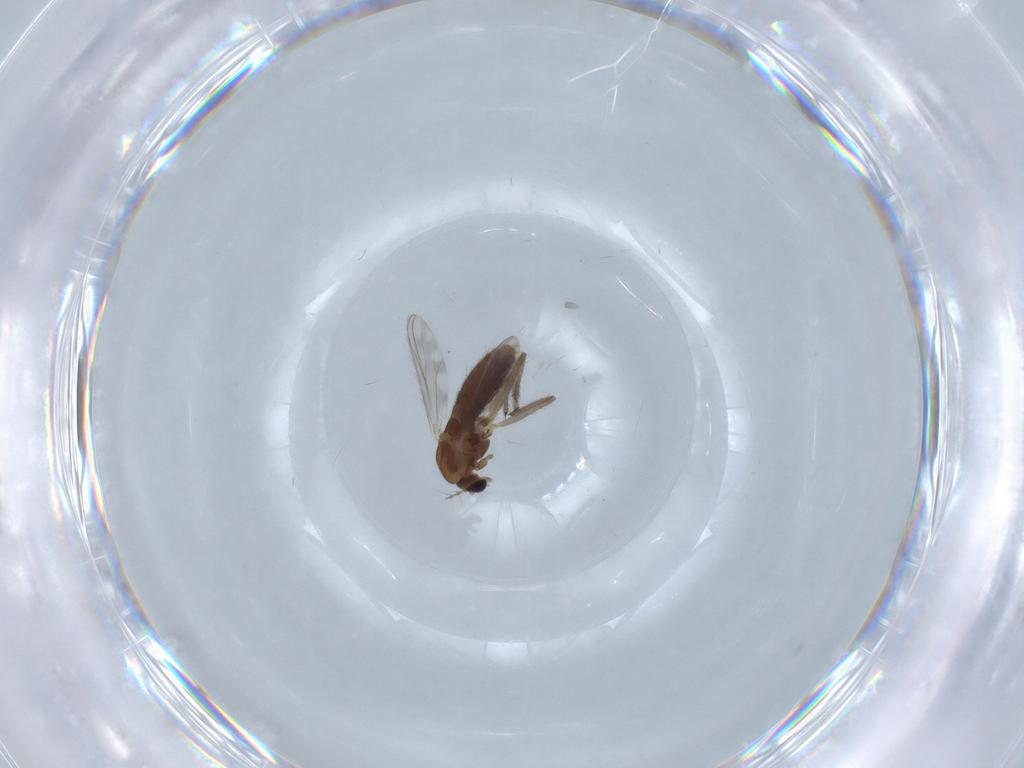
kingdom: Animalia
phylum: Arthropoda
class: Insecta
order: Diptera
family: Chironomidae
